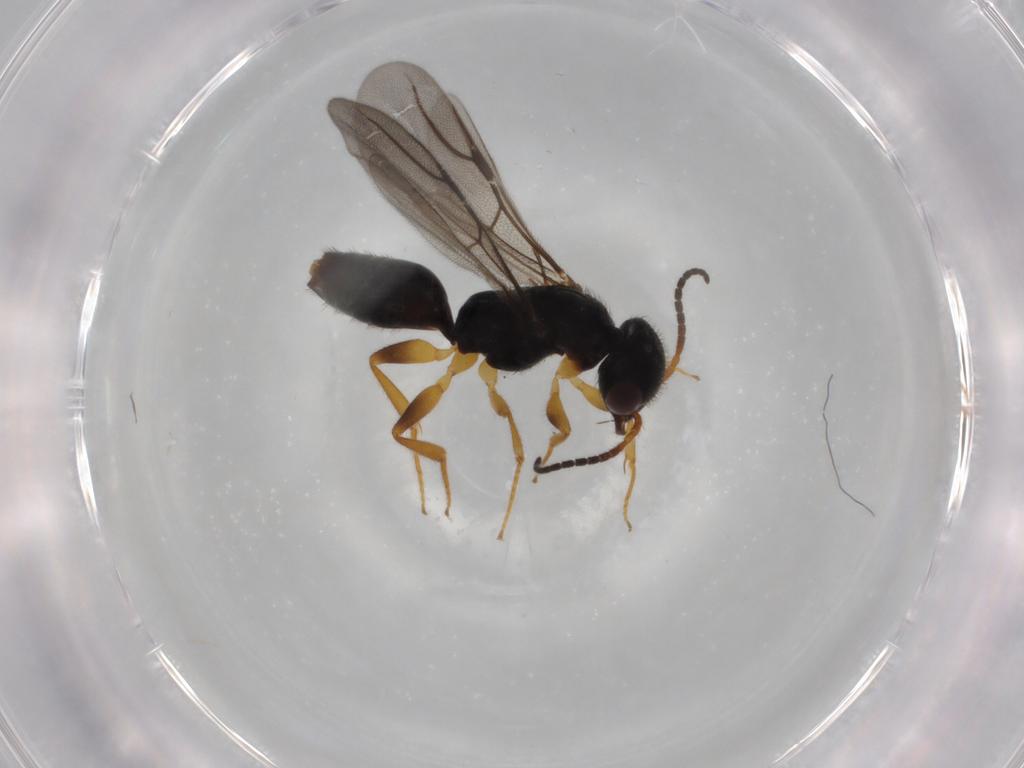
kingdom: Animalia
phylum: Arthropoda
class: Insecta
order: Hymenoptera
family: Bethylidae
